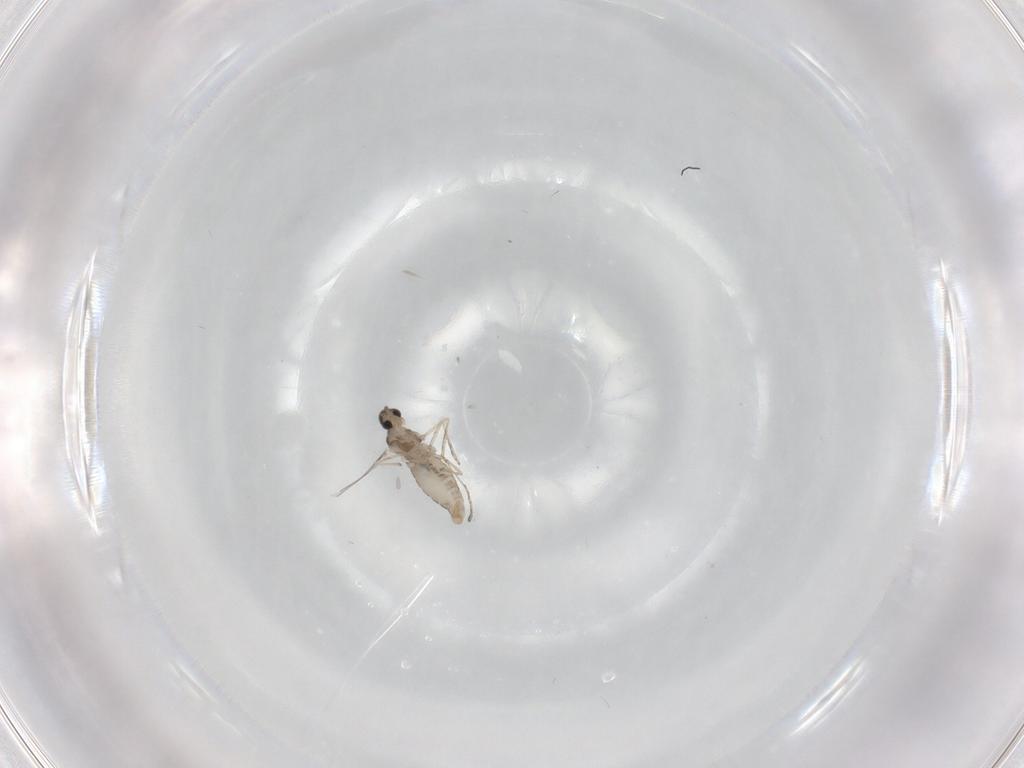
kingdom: Animalia
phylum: Arthropoda
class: Insecta
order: Diptera
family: Cecidomyiidae
